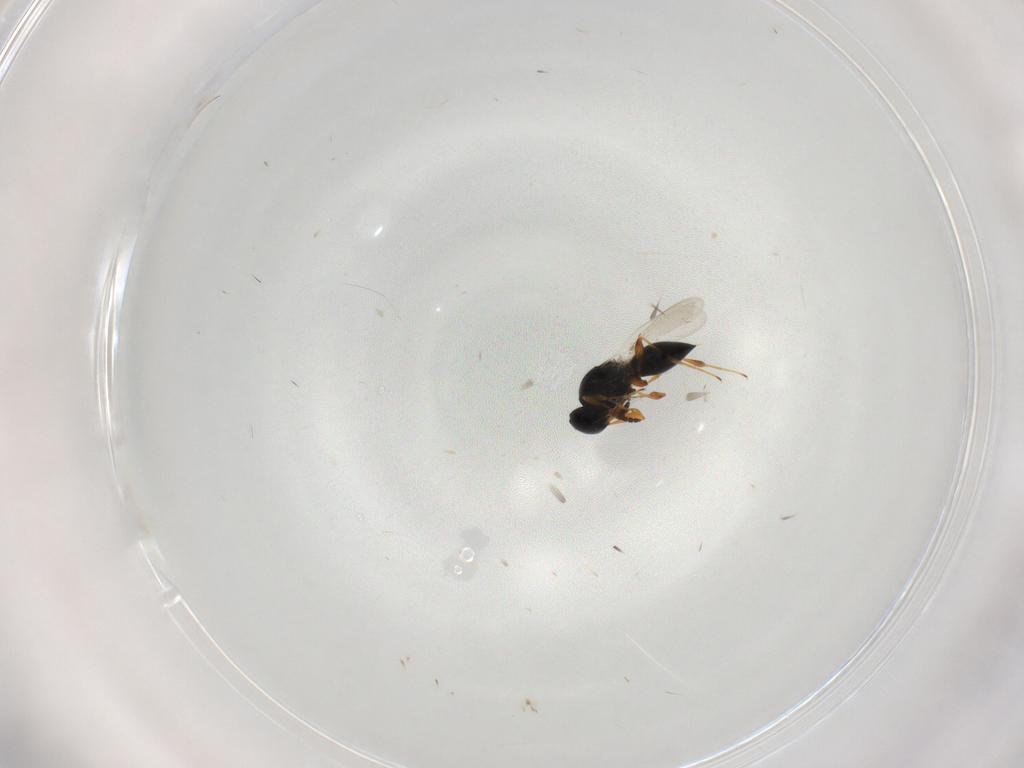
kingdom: Animalia
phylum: Arthropoda
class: Insecta
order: Hymenoptera
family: Platygastridae
